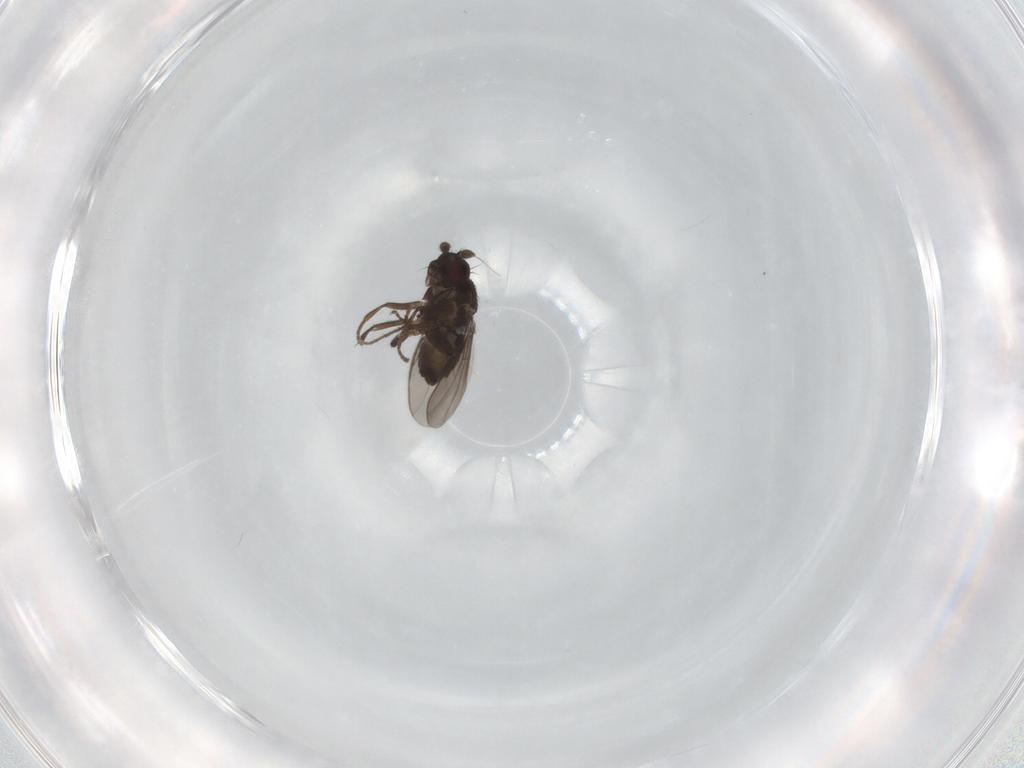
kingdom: Animalia
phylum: Arthropoda
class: Insecta
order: Diptera
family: Sphaeroceridae
